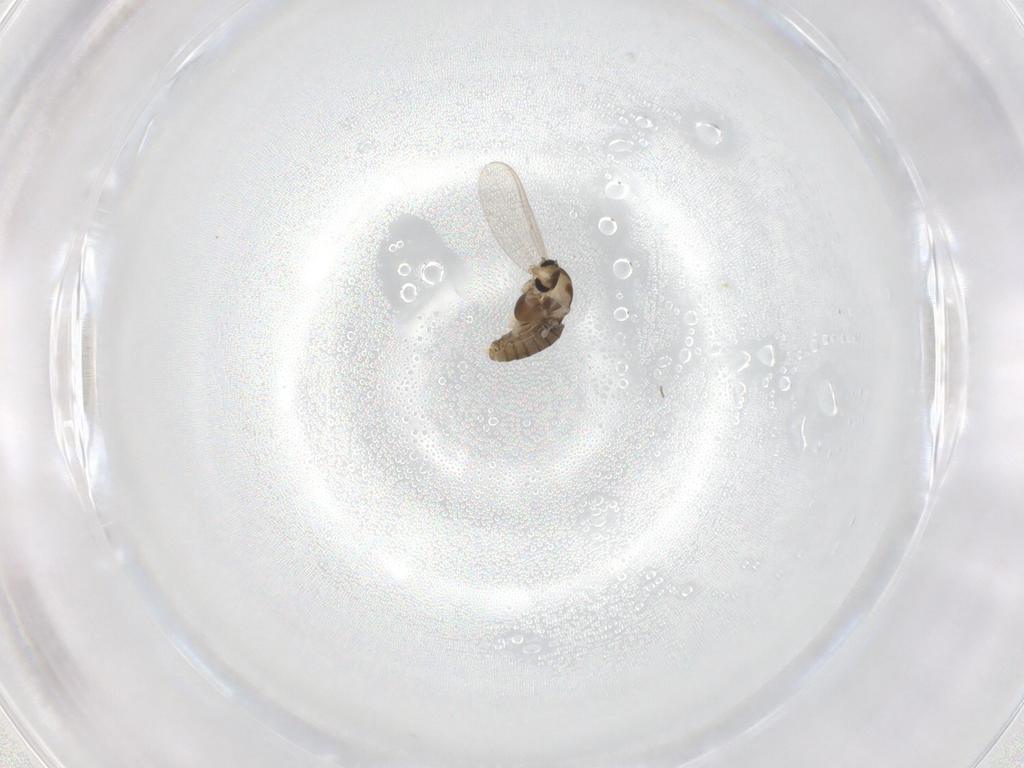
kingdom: Animalia
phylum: Arthropoda
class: Insecta
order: Diptera
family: Chironomidae
